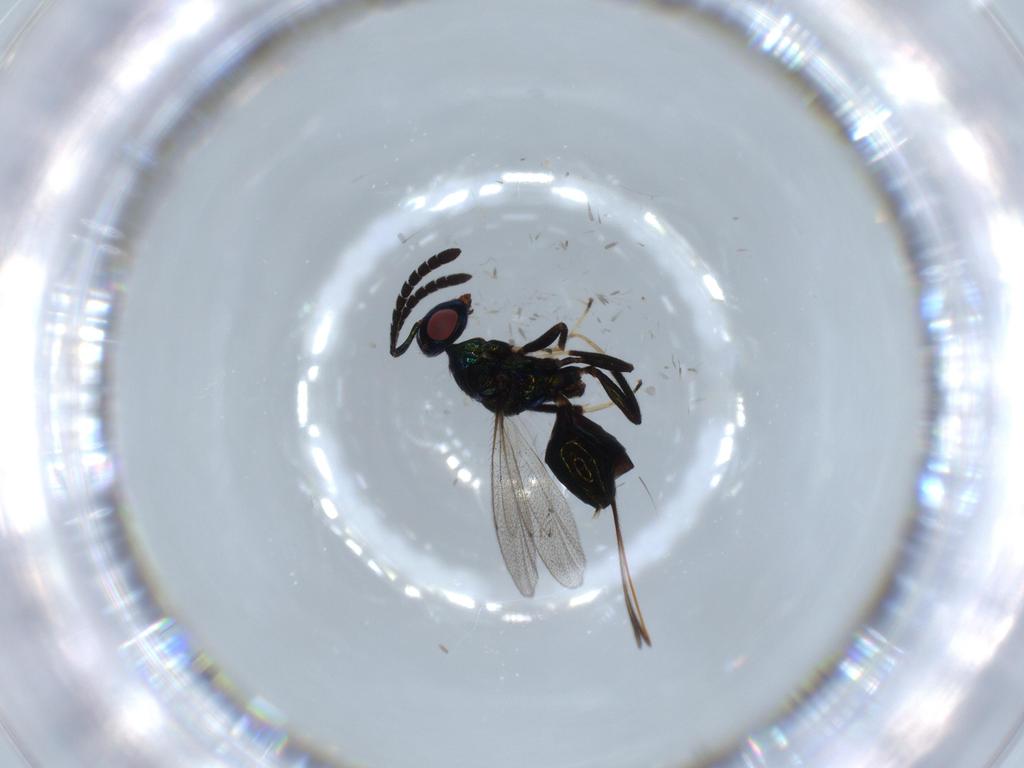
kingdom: Animalia
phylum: Arthropoda
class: Insecta
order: Hymenoptera
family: Torymidae
